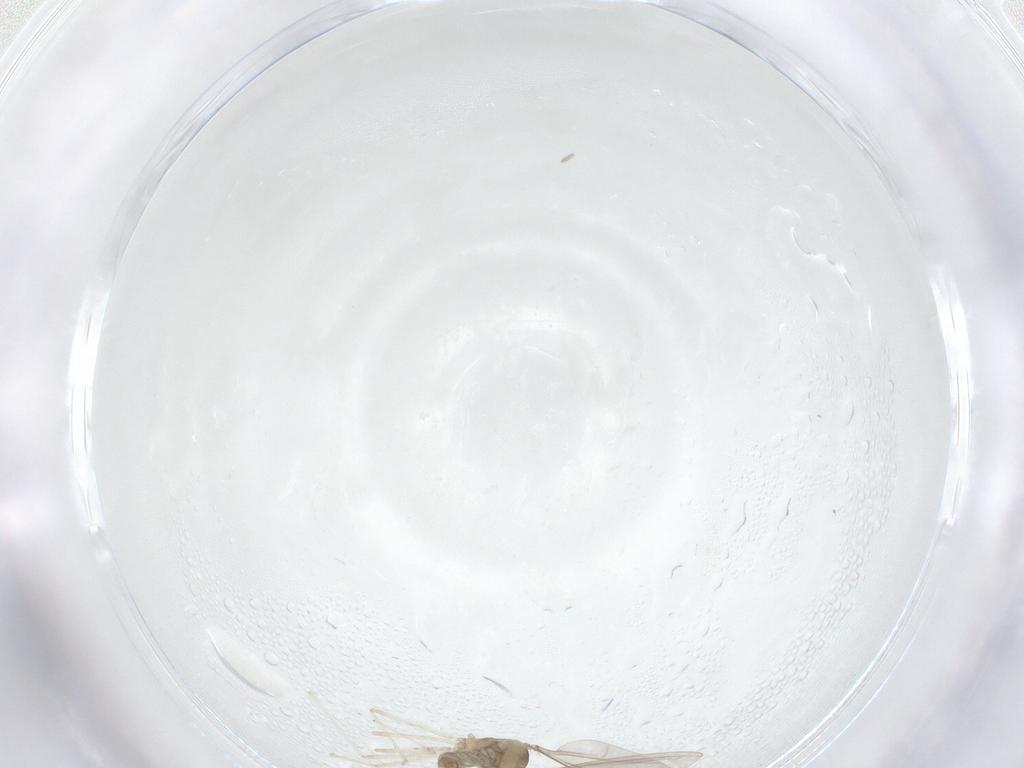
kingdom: Animalia
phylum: Arthropoda
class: Insecta
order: Diptera
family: Cecidomyiidae
